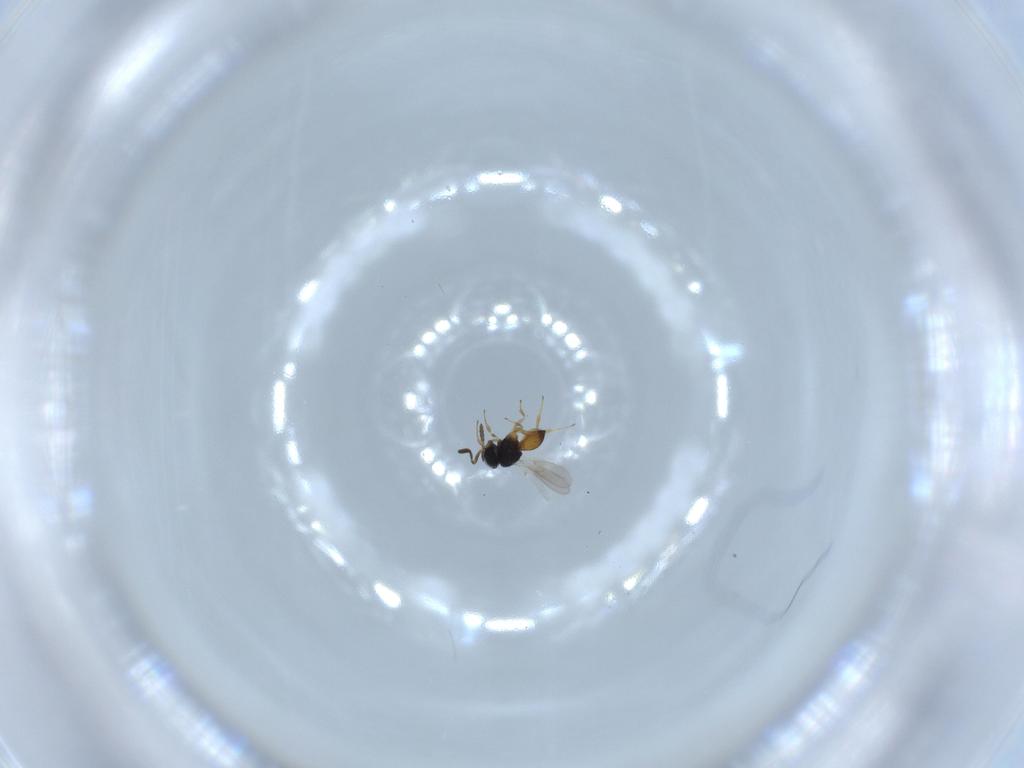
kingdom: Animalia
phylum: Arthropoda
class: Insecta
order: Hymenoptera
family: Scelionidae
